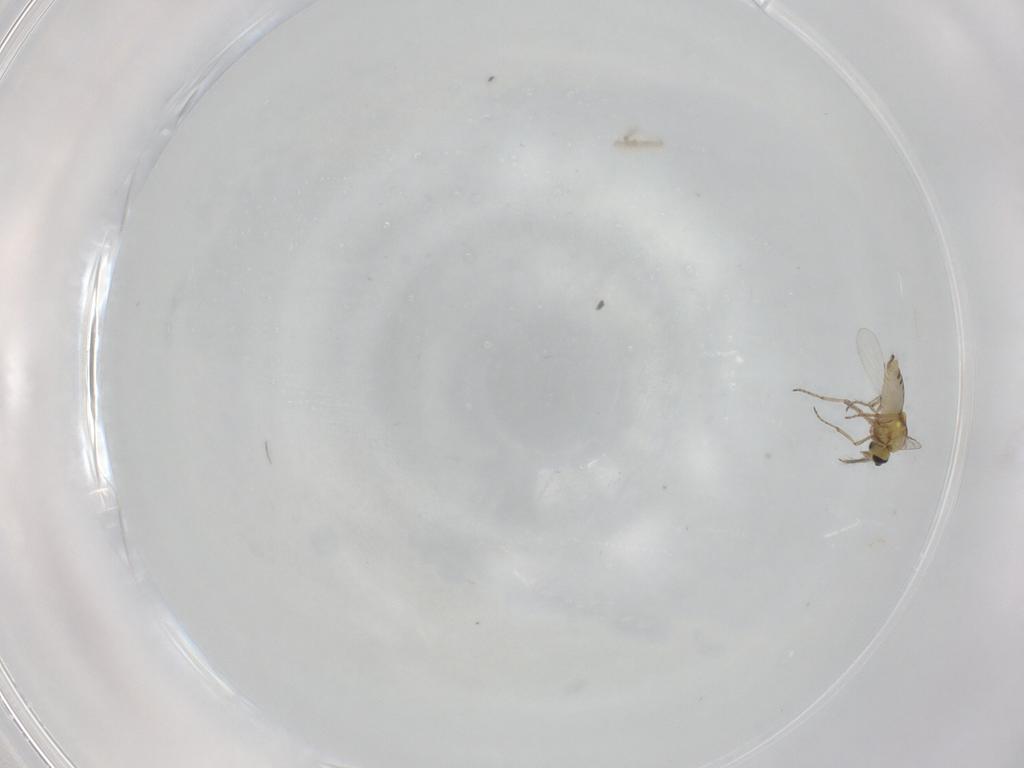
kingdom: Animalia
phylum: Arthropoda
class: Insecta
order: Diptera
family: Ceratopogonidae
